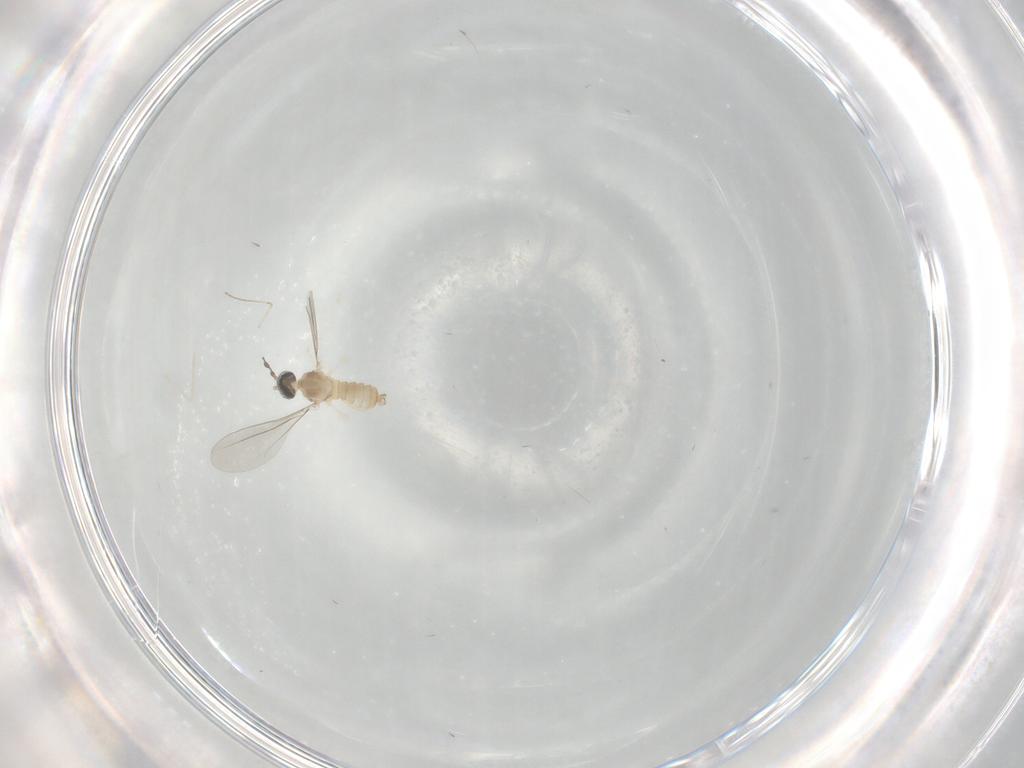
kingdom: Animalia
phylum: Arthropoda
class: Insecta
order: Diptera
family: Cecidomyiidae
